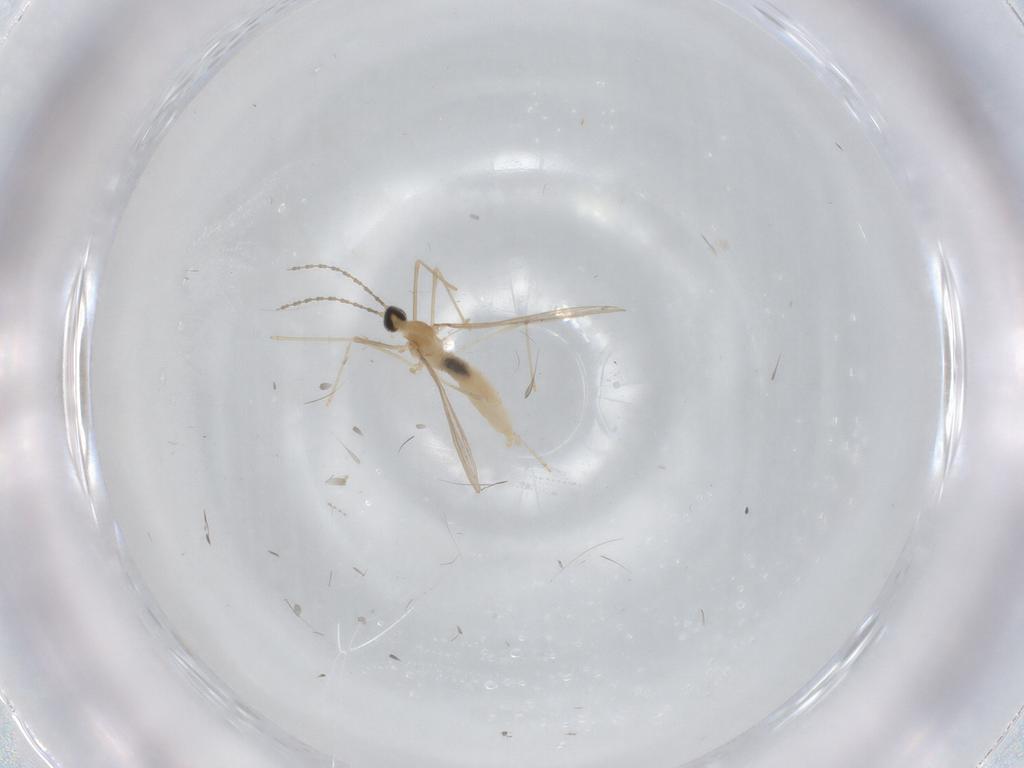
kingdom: Animalia
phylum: Arthropoda
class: Insecta
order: Diptera
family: Cecidomyiidae
